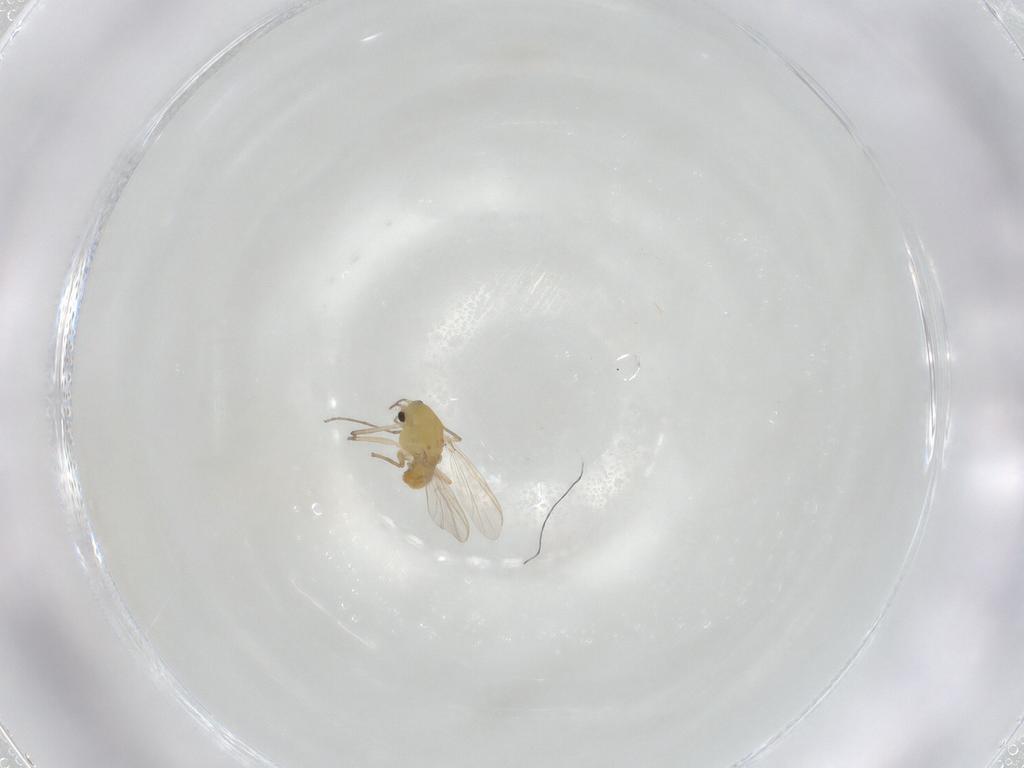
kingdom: Animalia
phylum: Arthropoda
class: Insecta
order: Diptera
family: Chironomidae
